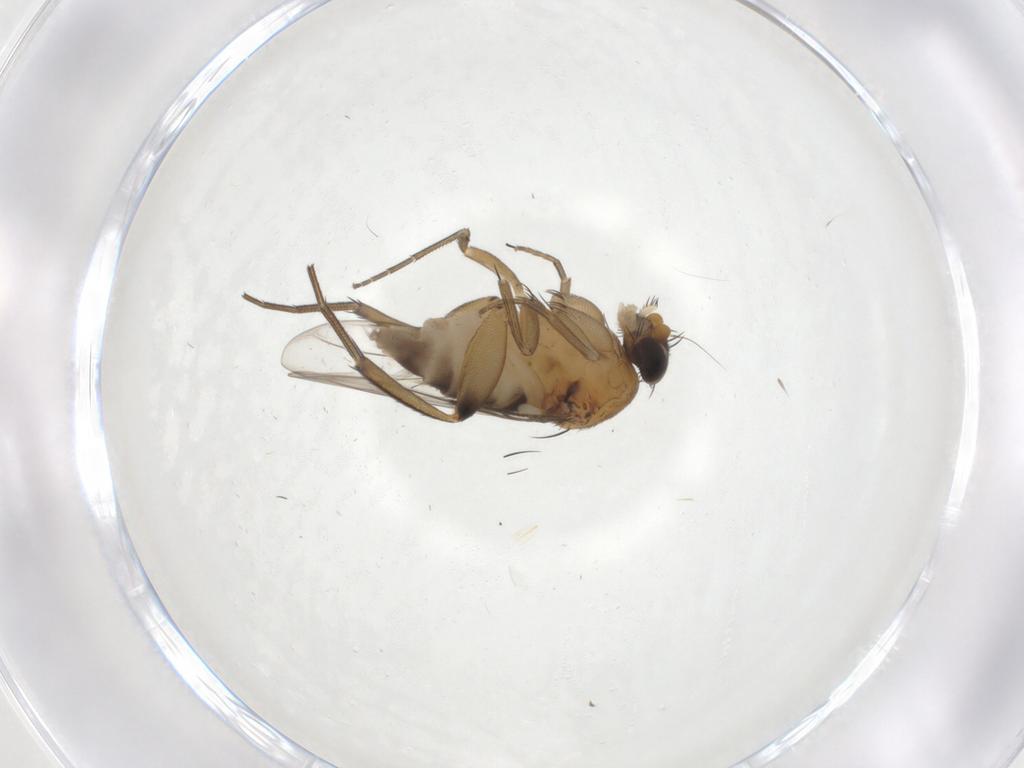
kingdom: Animalia
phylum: Arthropoda
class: Insecta
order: Diptera
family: Phoridae
